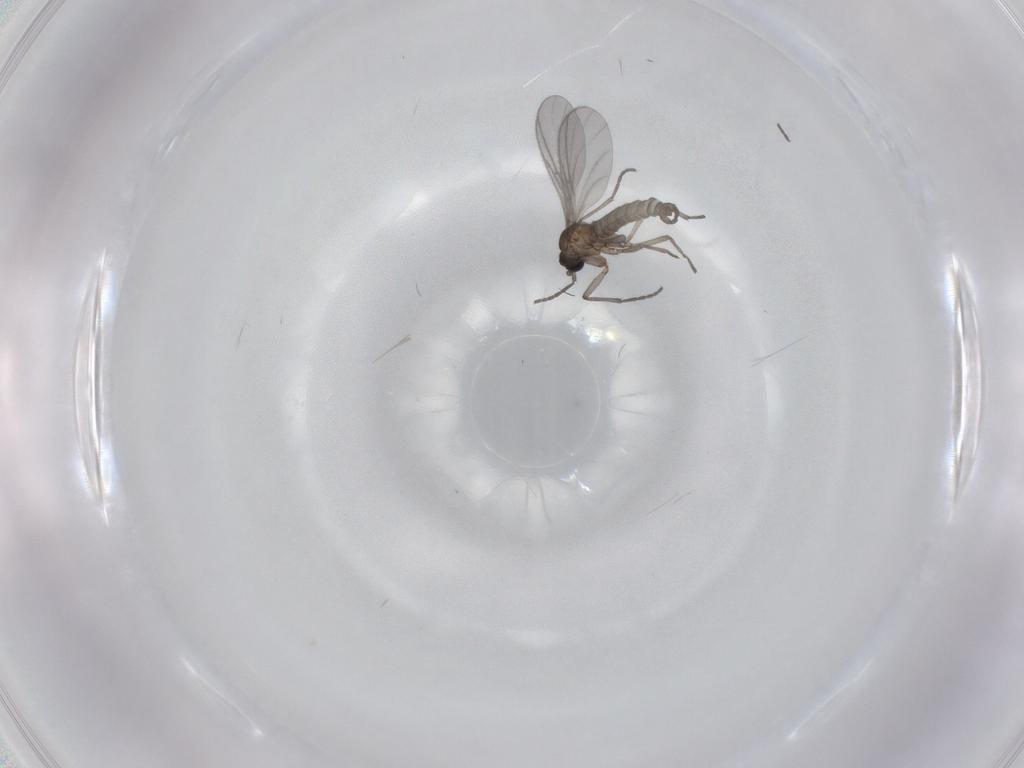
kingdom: Animalia
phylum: Arthropoda
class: Insecta
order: Diptera
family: Sciaridae
